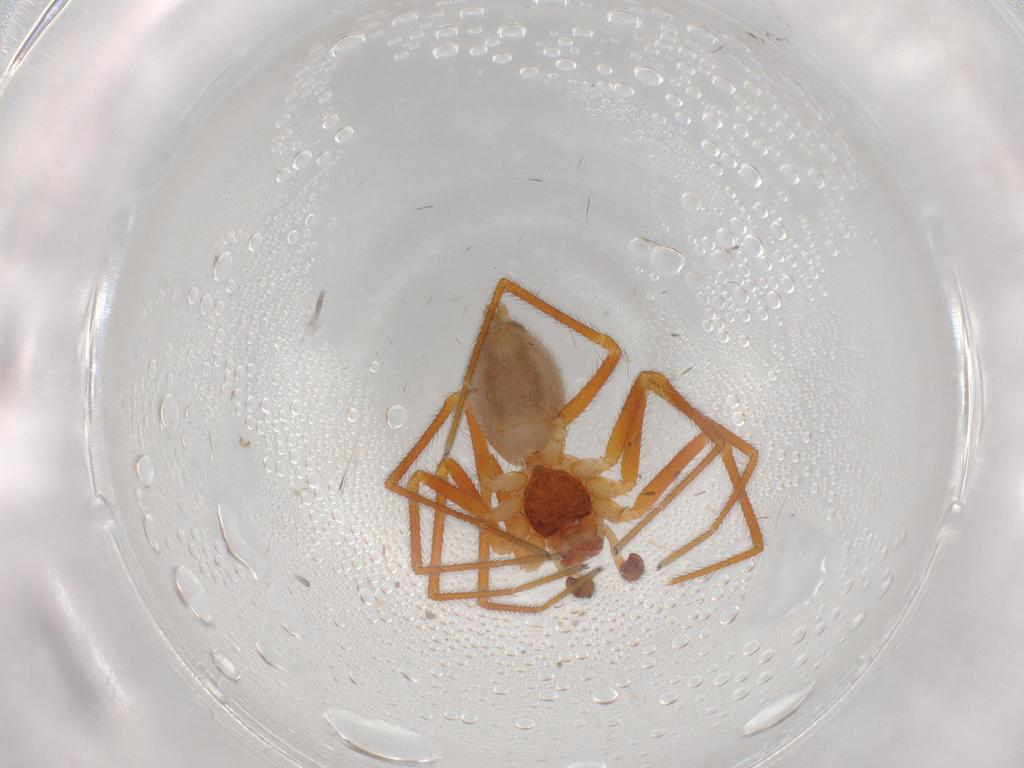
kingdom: Animalia
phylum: Arthropoda
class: Arachnida
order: Araneae
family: Linyphiidae
